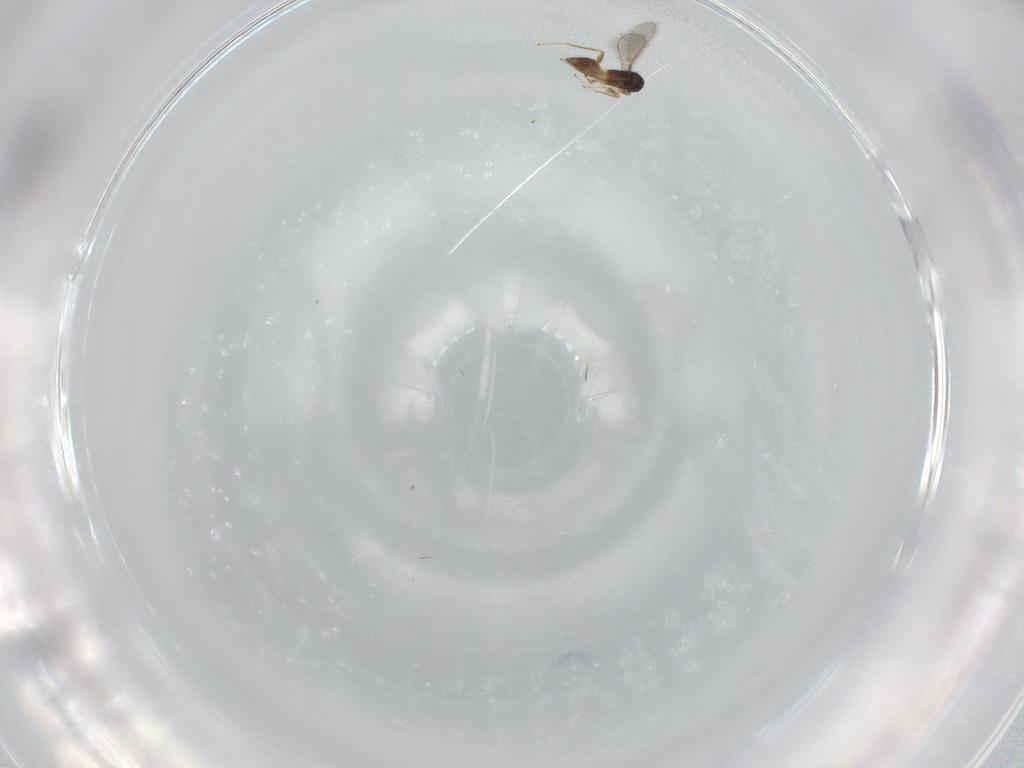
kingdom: Animalia
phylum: Arthropoda
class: Insecta
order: Hymenoptera
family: Mymaridae
